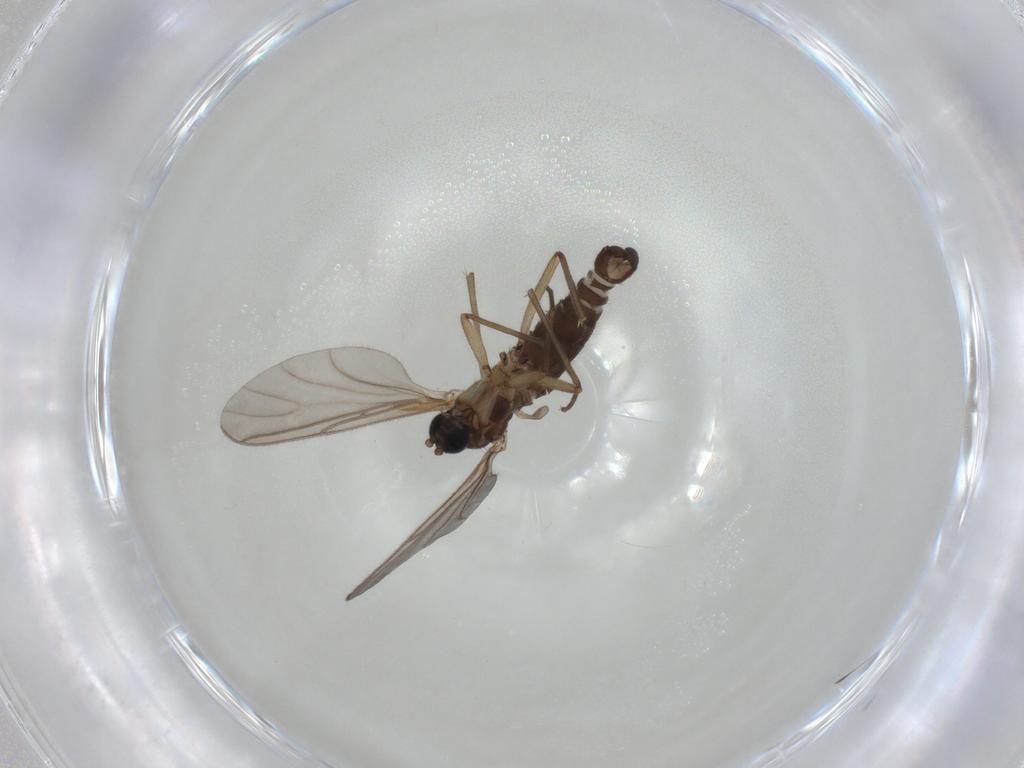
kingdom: Animalia
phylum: Arthropoda
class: Insecta
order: Diptera
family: Sciaridae
